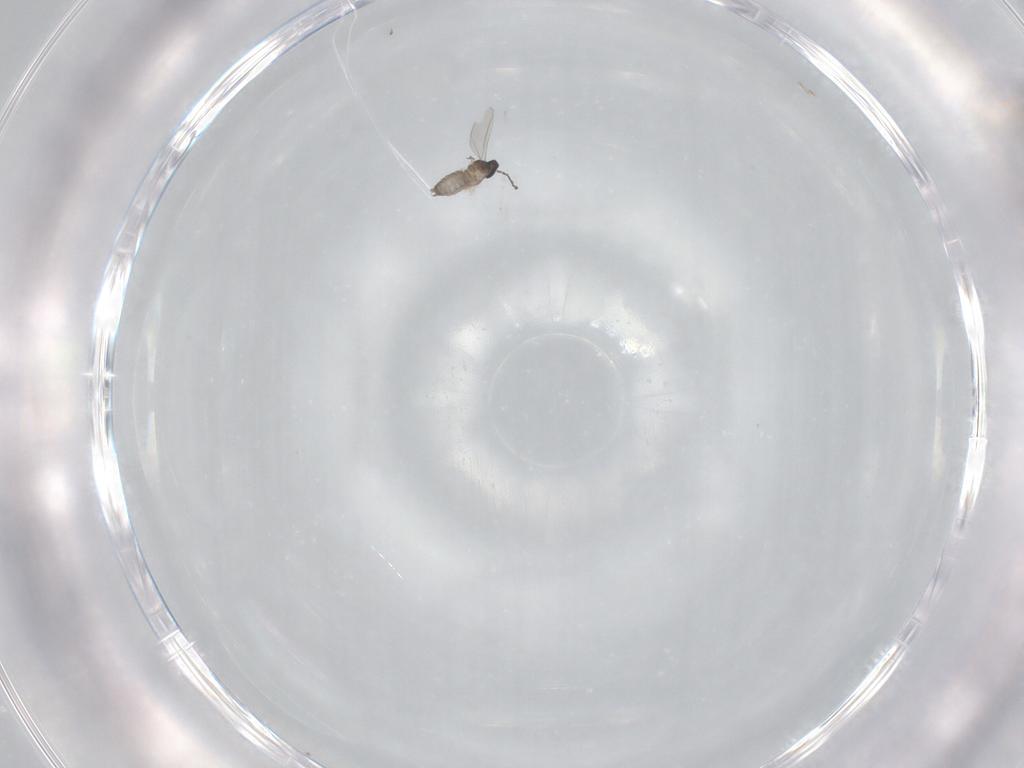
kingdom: Animalia
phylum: Arthropoda
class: Insecta
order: Diptera
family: Cecidomyiidae
